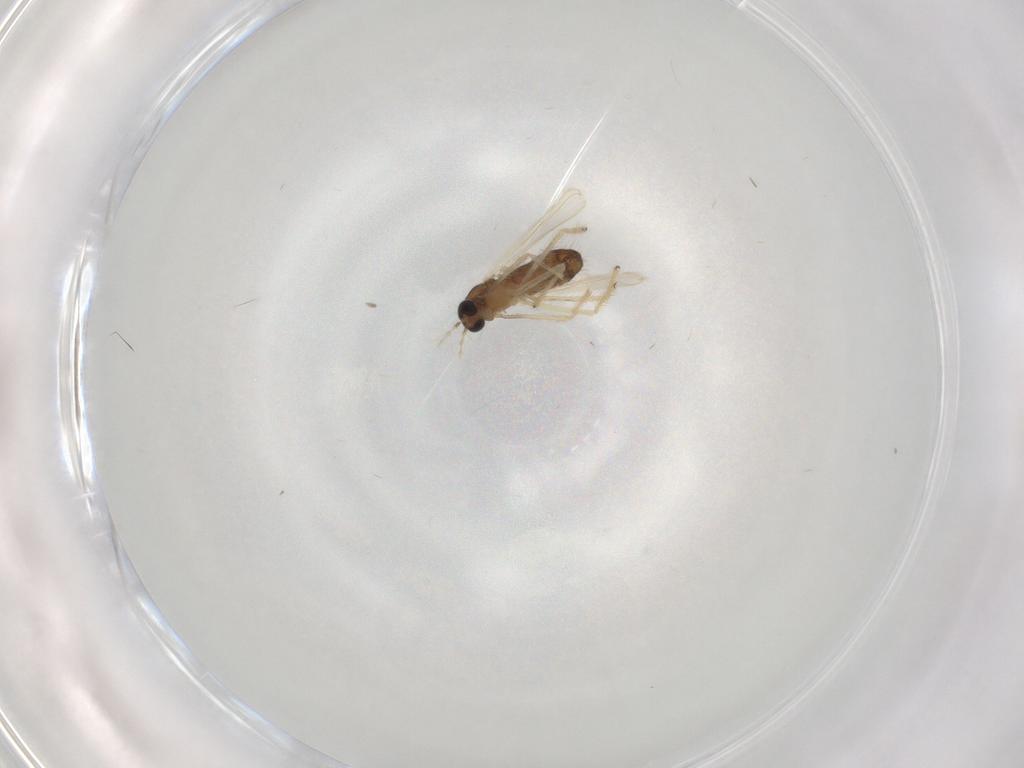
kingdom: Animalia
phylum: Arthropoda
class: Insecta
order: Diptera
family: Chironomidae
